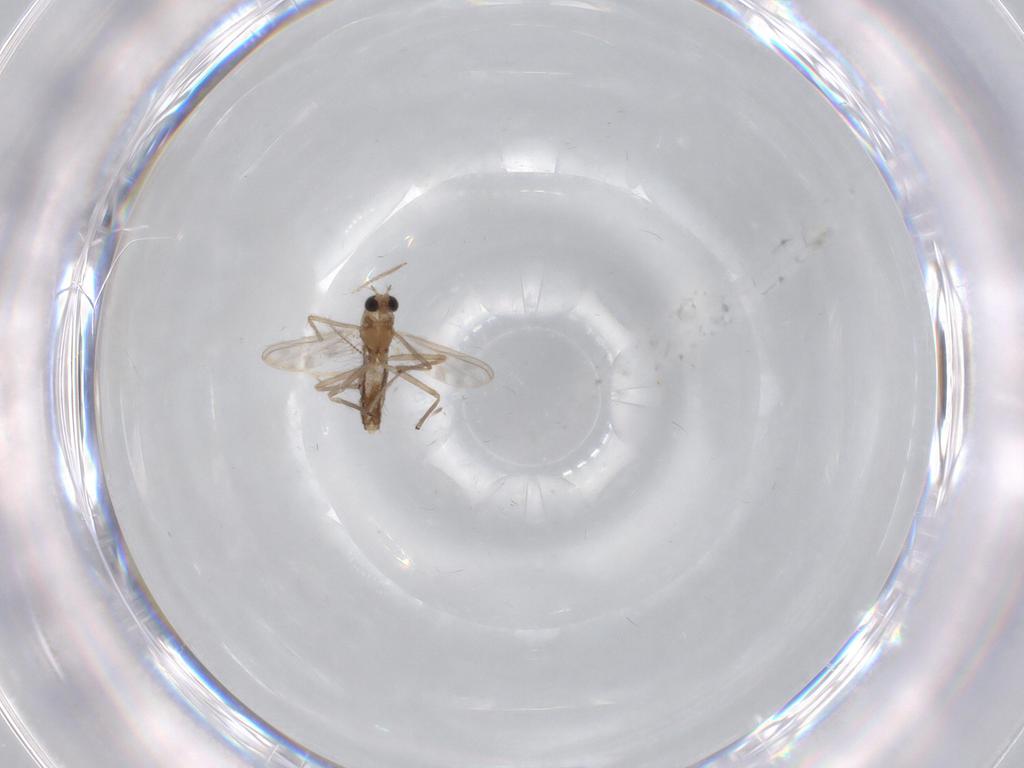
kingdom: Animalia
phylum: Arthropoda
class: Insecta
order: Diptera
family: Chironomidae
